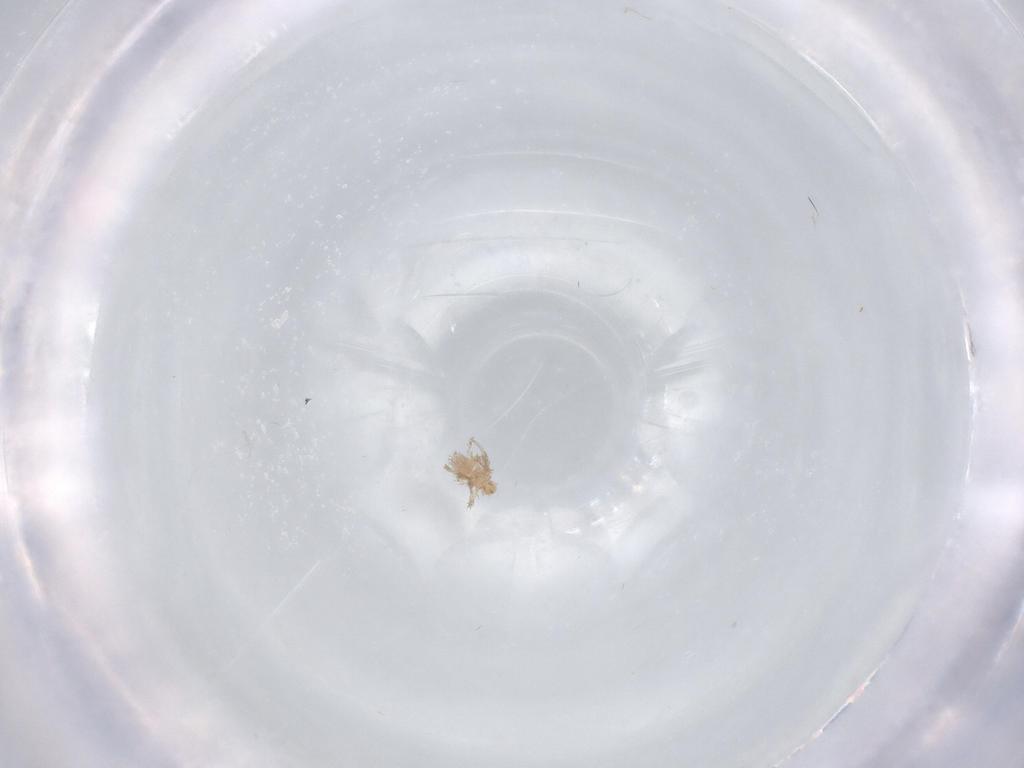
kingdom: Animalia
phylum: Arthropoda
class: Arachnida
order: Trombidiformes
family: Erythraeidae
